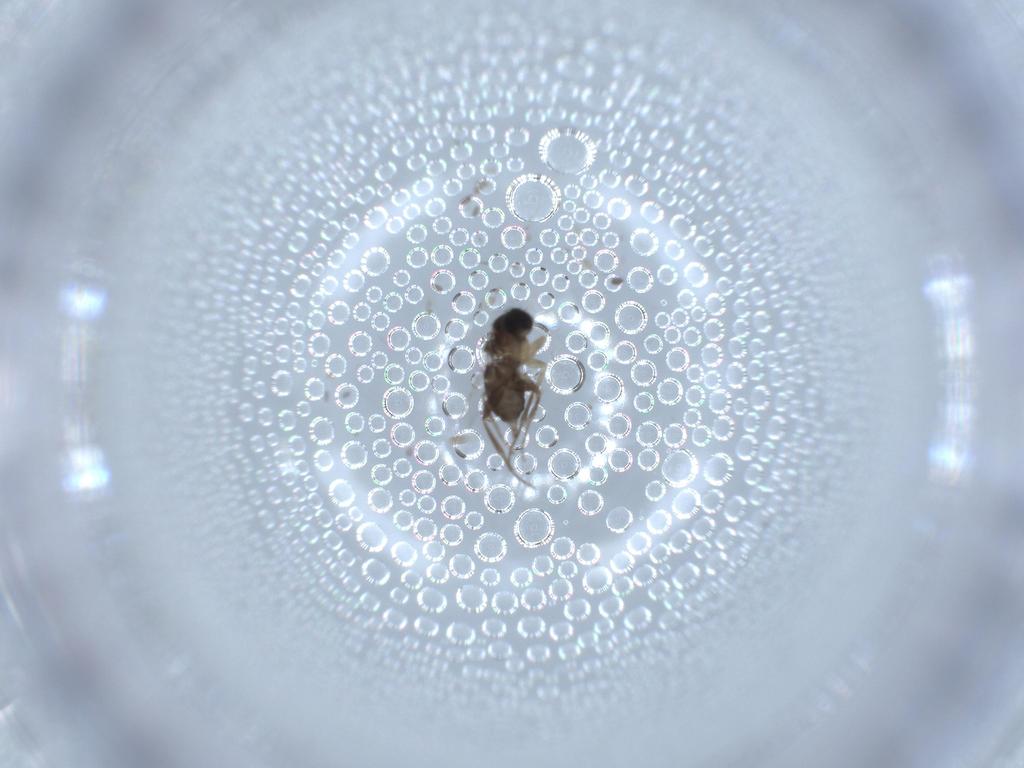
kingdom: Animalia
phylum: Arthropoda
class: Insecta
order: Diptera
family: Phoridae
